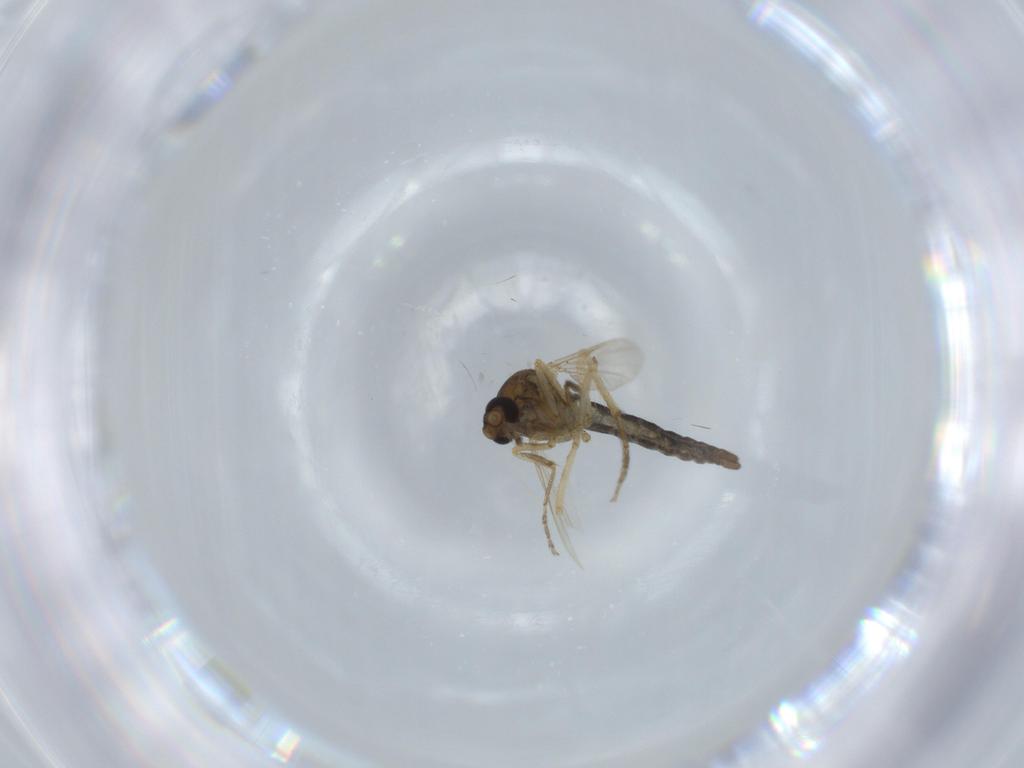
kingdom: Animalia
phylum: Arthropoda
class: Insecta
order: Diptera
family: Ceratopogonidae
